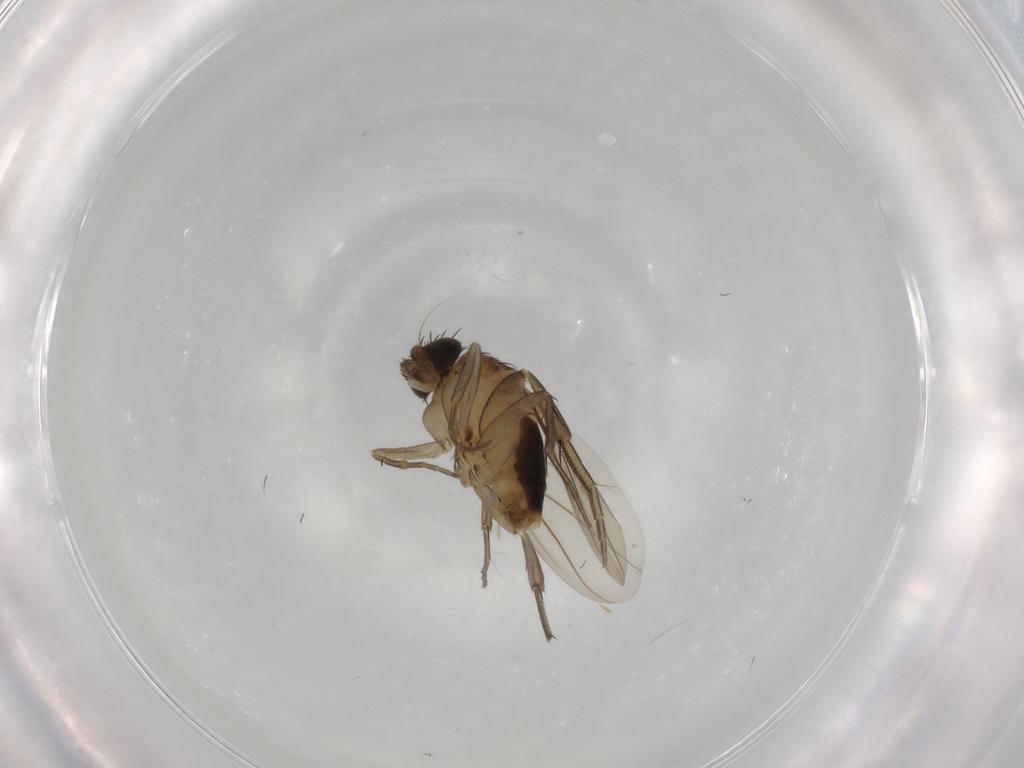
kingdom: Animalia
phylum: Arthropoda
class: Insecta
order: Diptera
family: Phoridae
